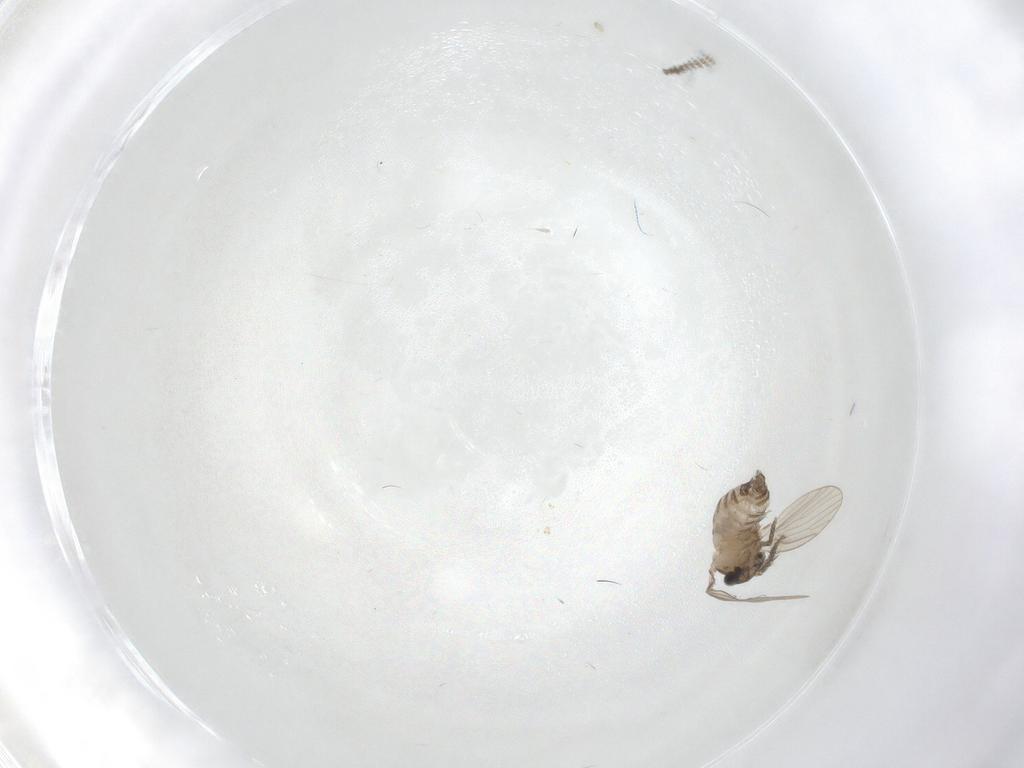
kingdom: Animalia
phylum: Arthropoda
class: Insecta
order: Diptera
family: Psychodidae
